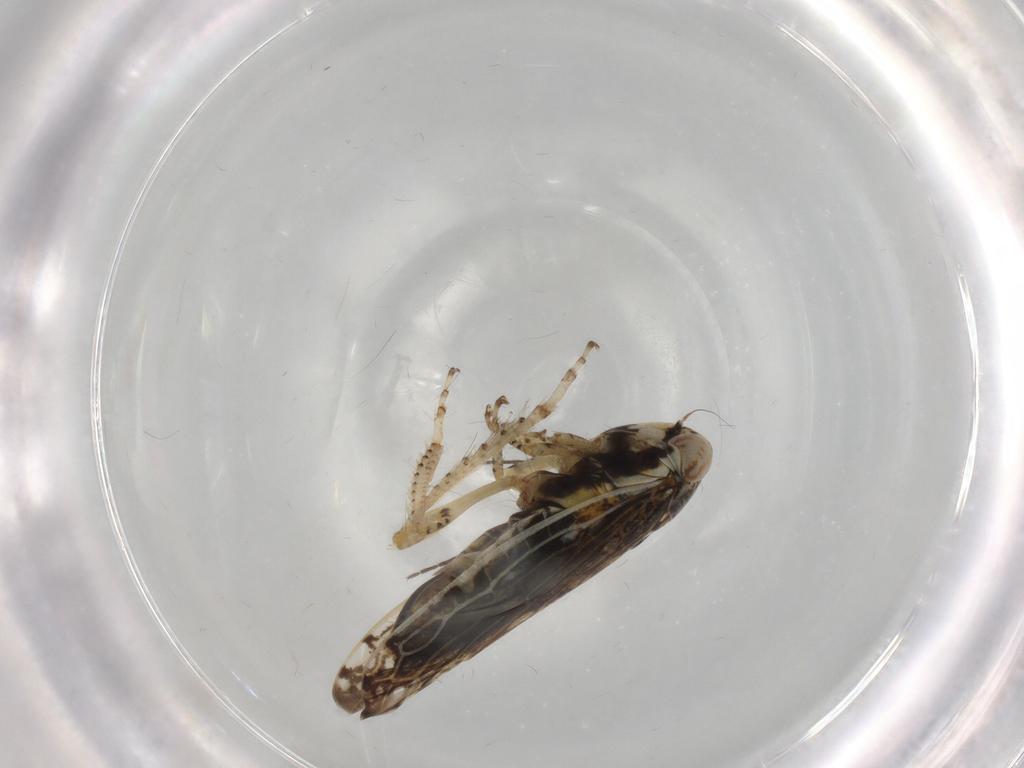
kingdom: Animalia
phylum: Arthropoda
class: Insecta
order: Hemiptera
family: Cicadellidae
